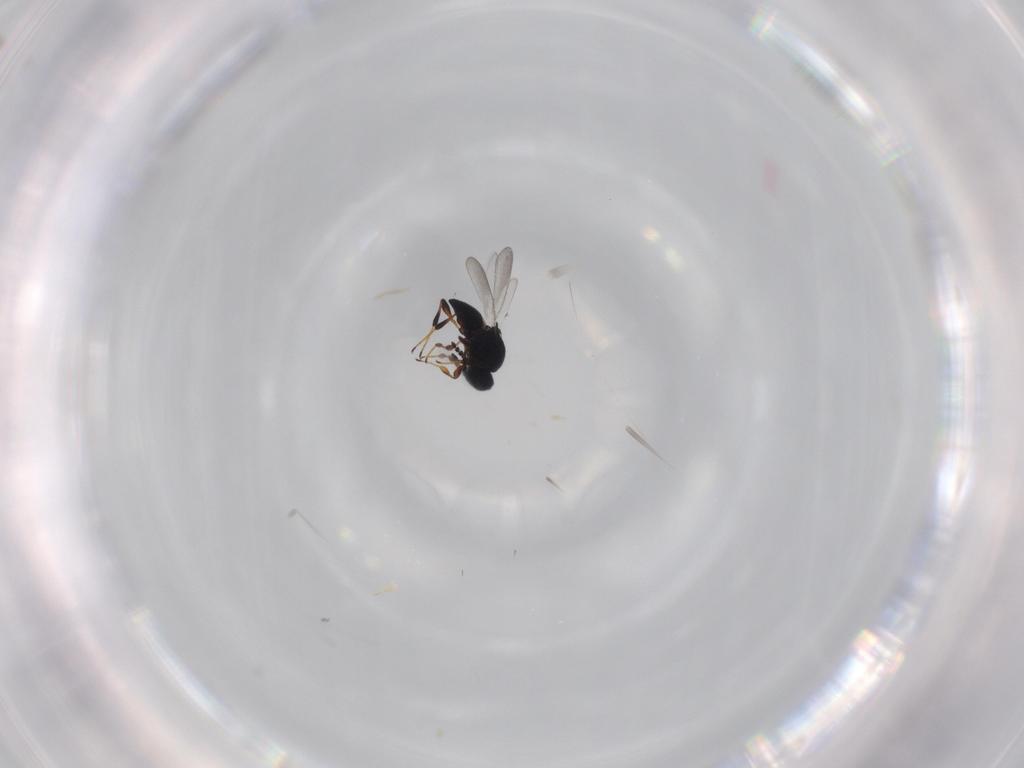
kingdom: Animalia
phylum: Arthropoda
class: Insecta
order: Hymenoptera
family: Platygastridae
